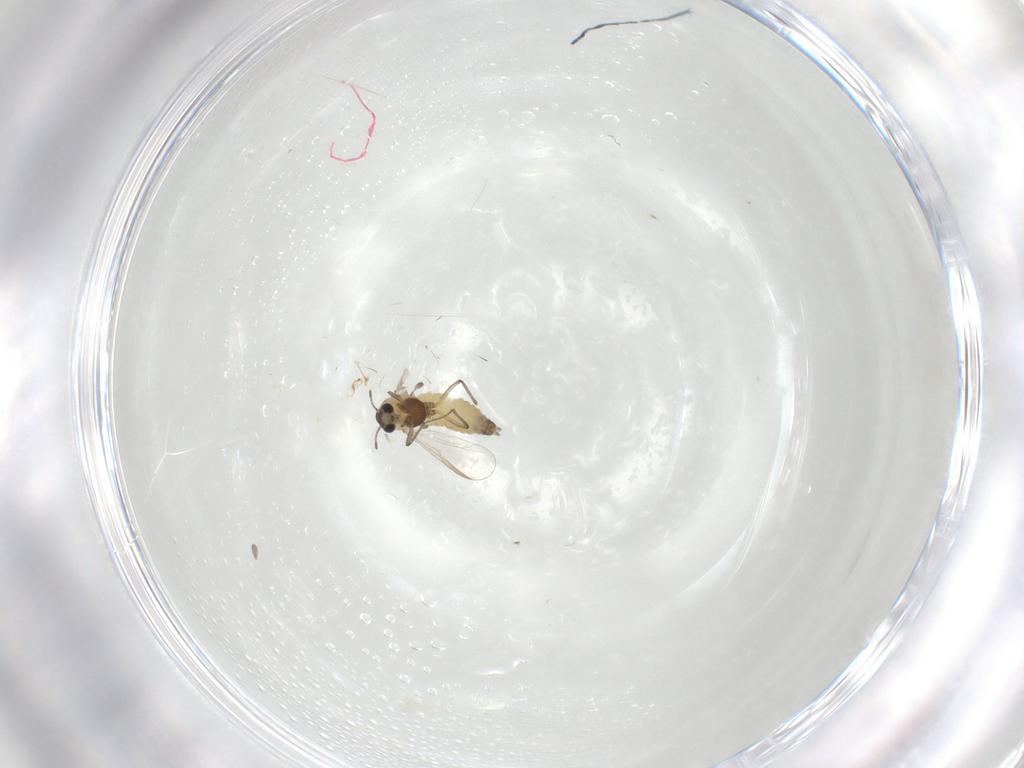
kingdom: Animalia
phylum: Arthropoda
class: Insecta
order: Diptera
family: Chironomidae
